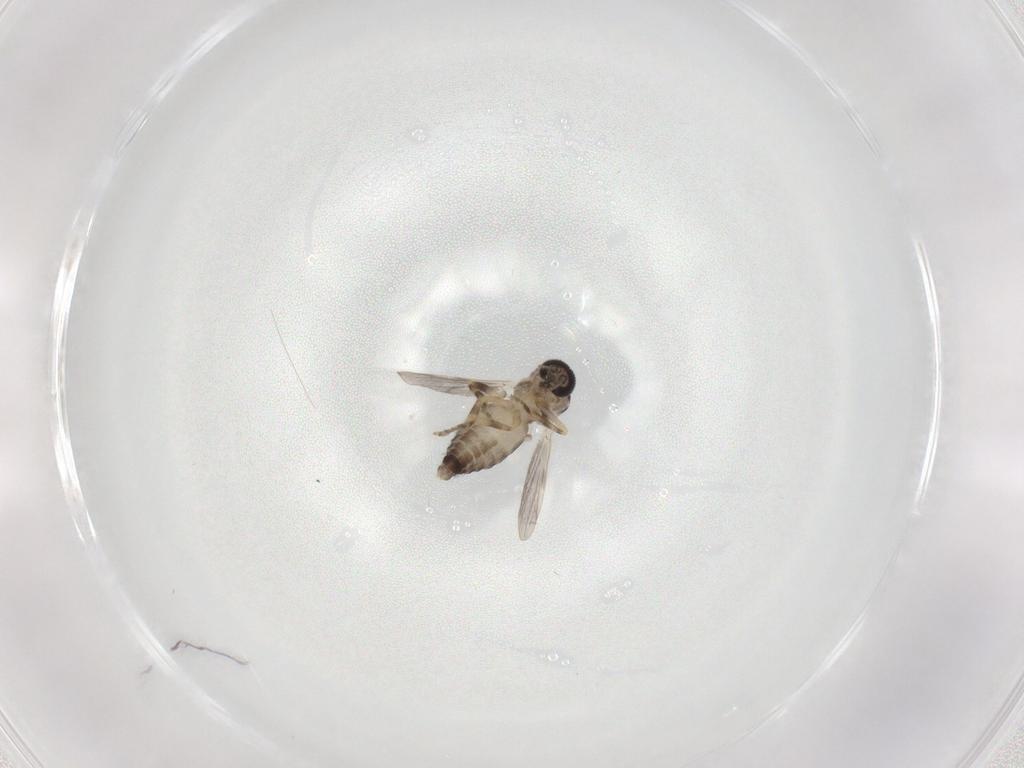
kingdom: Animalia
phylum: Arthropoda
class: Insecta
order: Diptera
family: Ceratopogonidae
